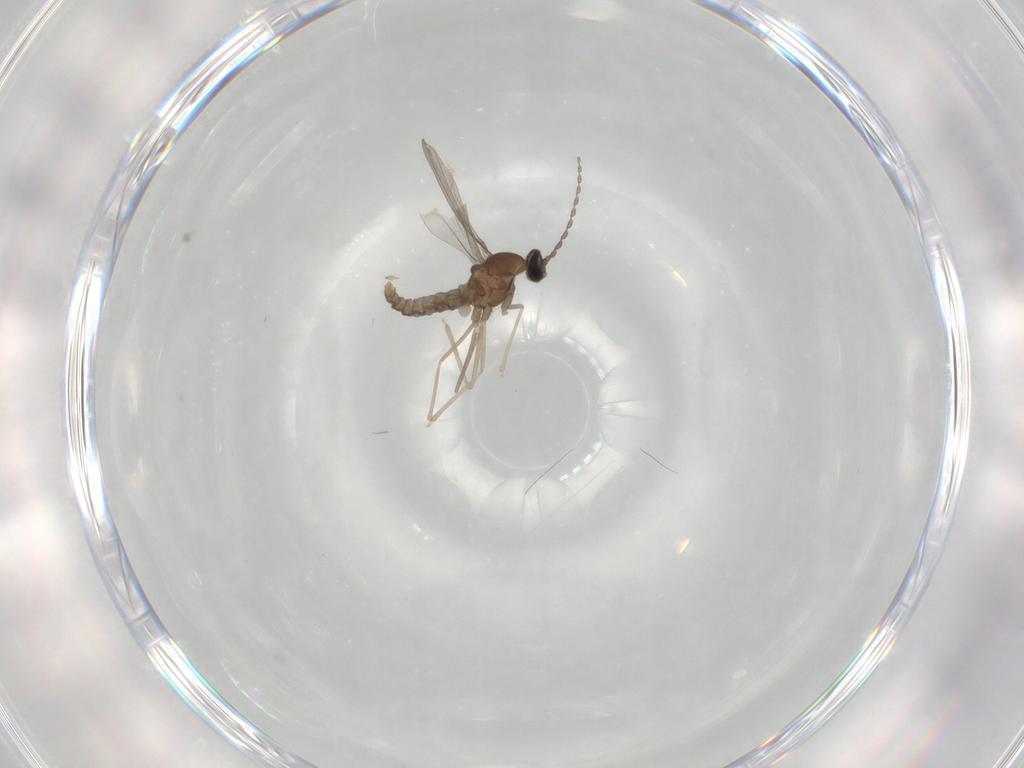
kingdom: Animalia
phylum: Arthropoda
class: Insecta
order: Diptera
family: Cecidomyiidae
